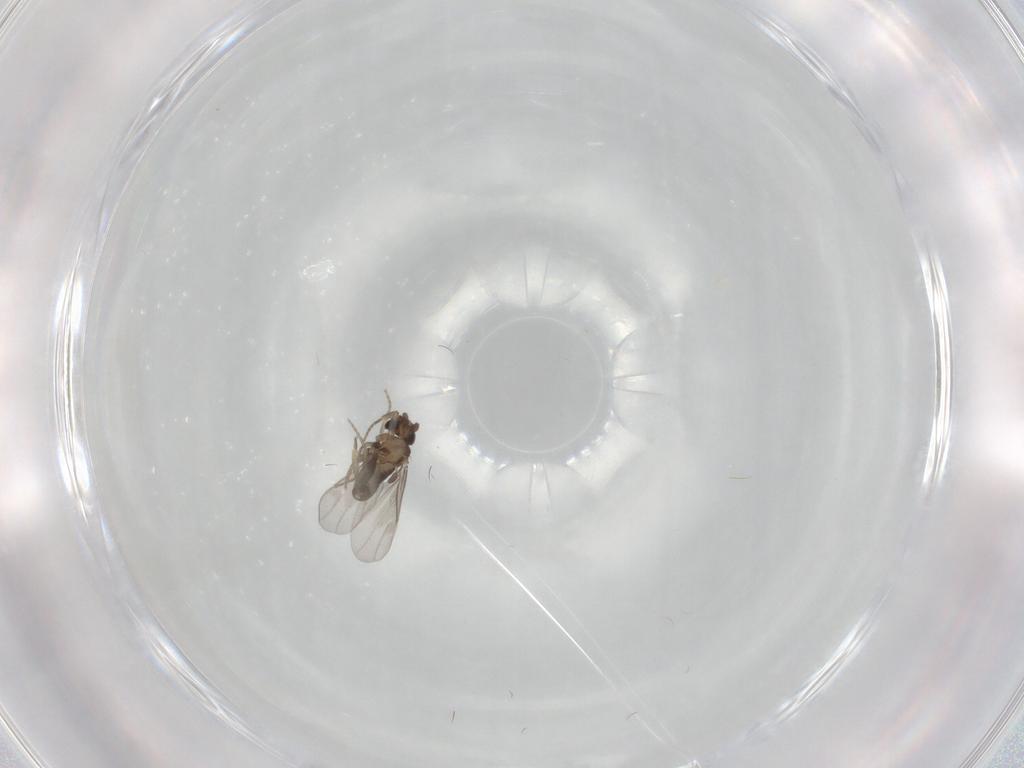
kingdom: Animalia
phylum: Arthropoda
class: Insecta
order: Diptera
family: Tabanidae
